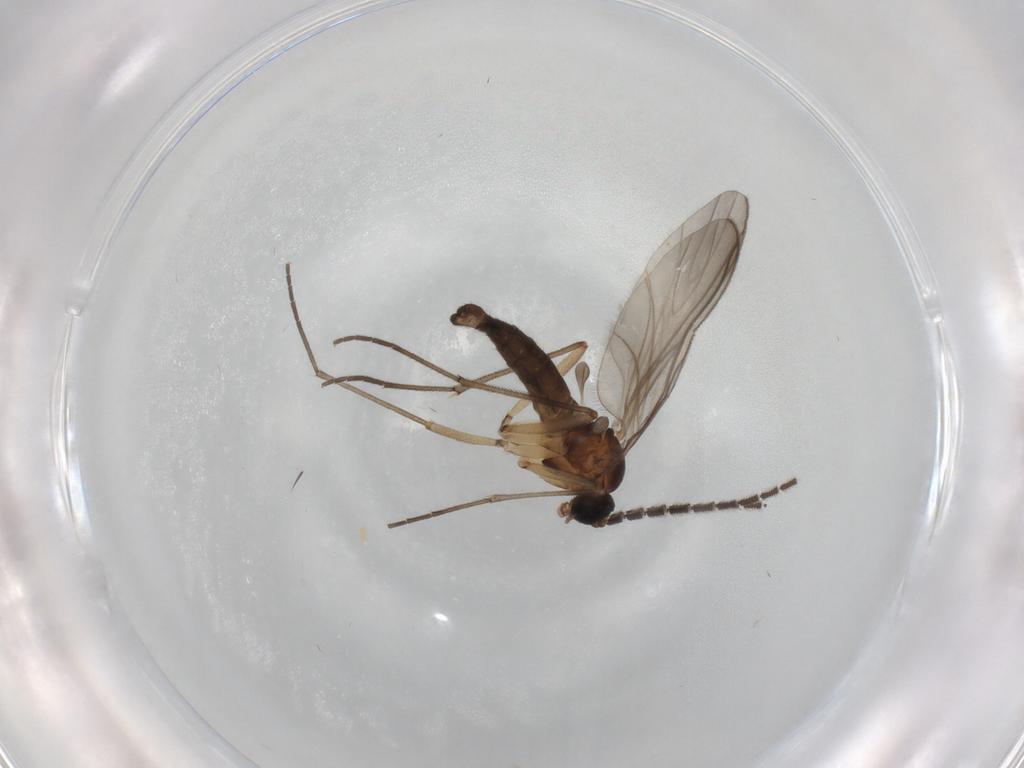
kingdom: Animalia
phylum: Arthropoda
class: Insecta
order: Diptera
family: Sciaridae
